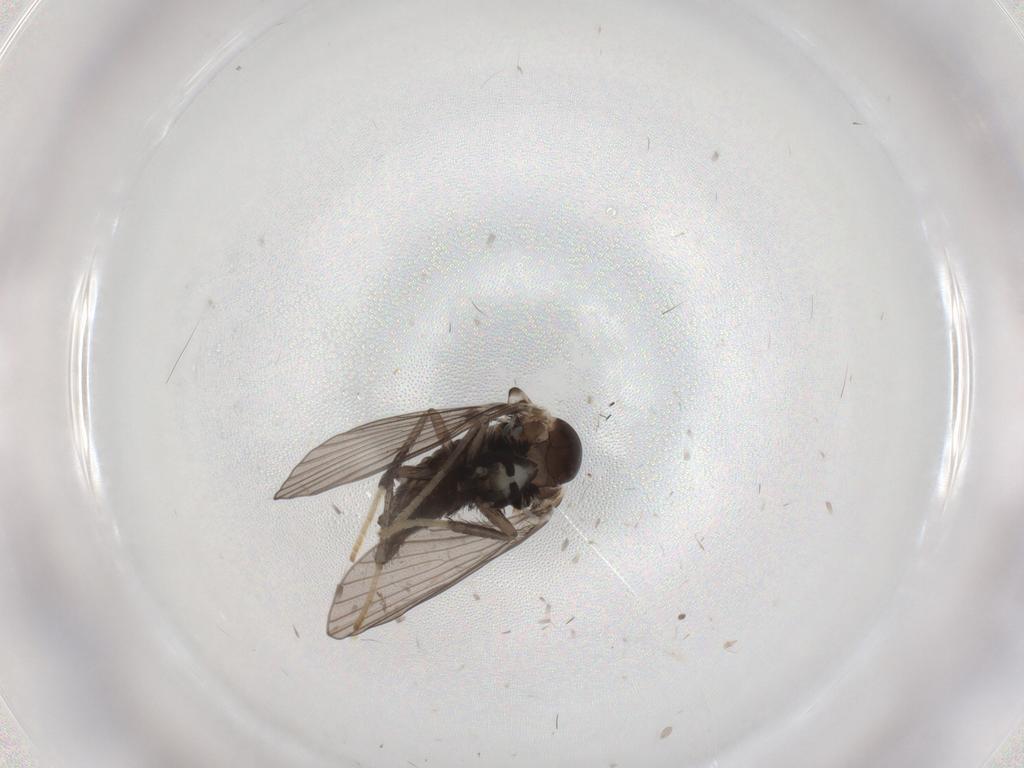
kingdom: Animalia
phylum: Arthropoda
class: Insecta
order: Diptera
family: Psychodidae
